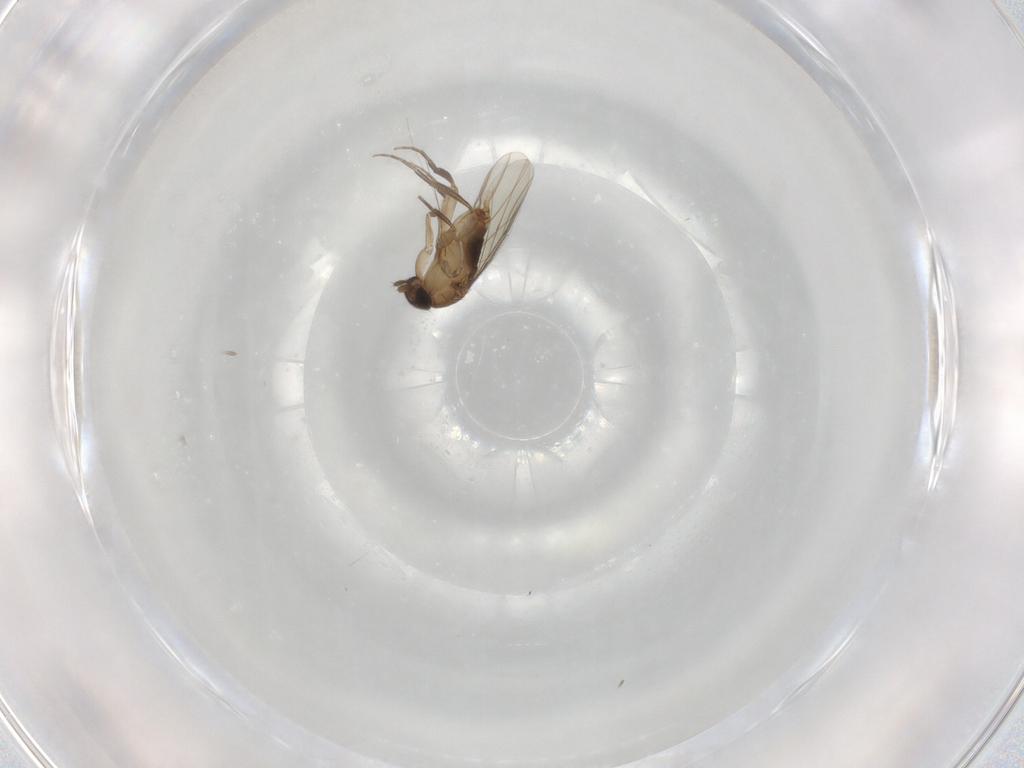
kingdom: Animalia
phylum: Arthropoda
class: Insecta
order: Diptera
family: Phoridae
